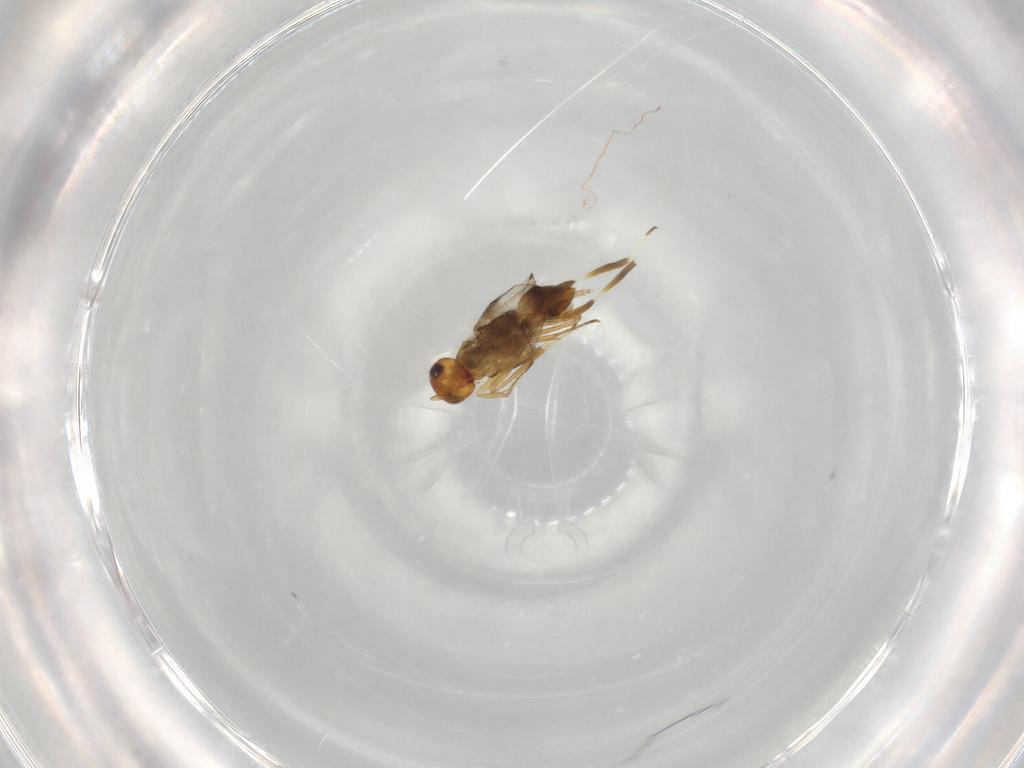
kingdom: Animalia
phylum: Arthropoda
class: Insecta
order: Hymenoptera
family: Encyrtidae
